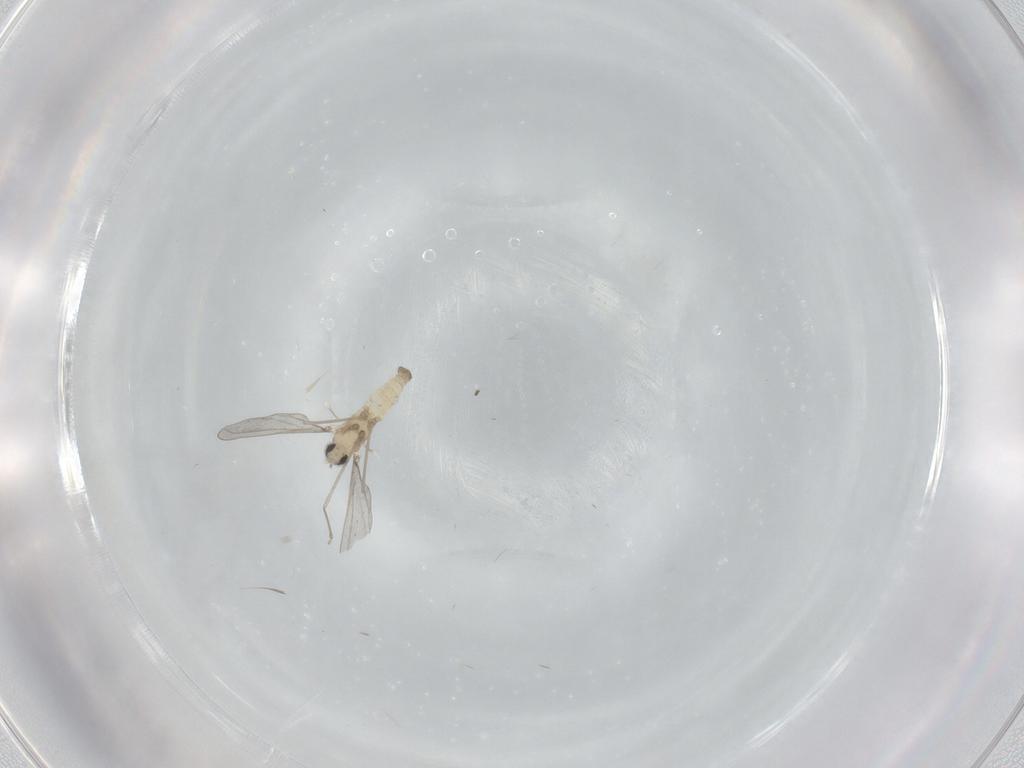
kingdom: Animalia
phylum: Arthropoda
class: Insecta
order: Diptera
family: Cecidomyiidae
